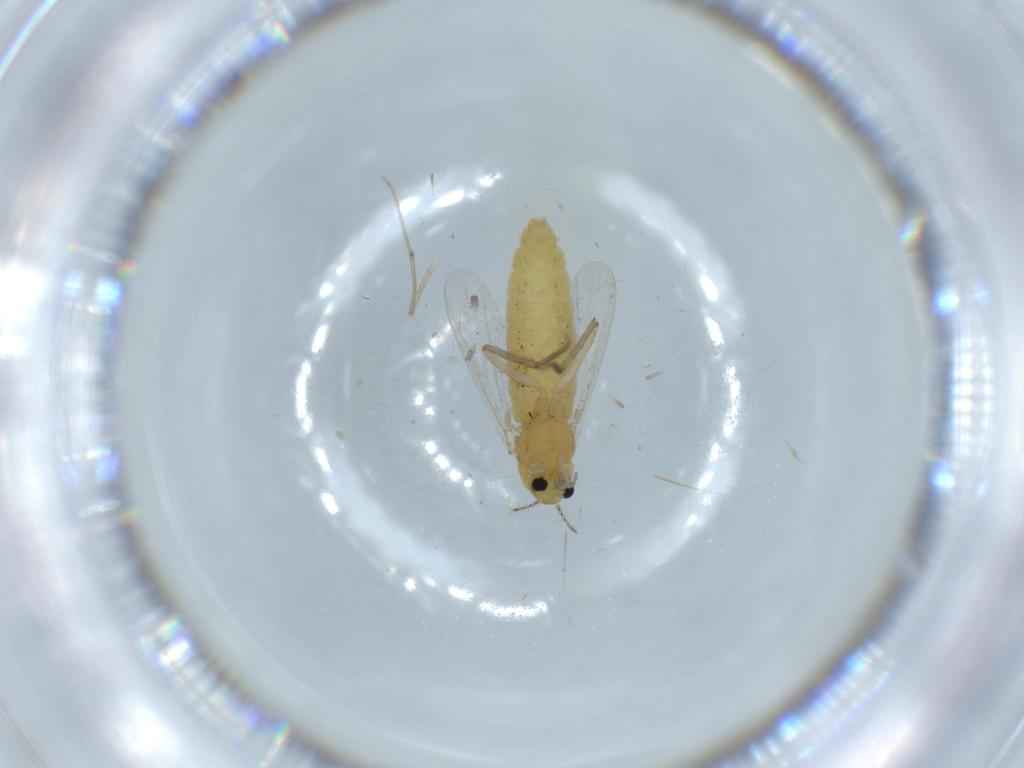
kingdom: Animalia
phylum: Arthropoda
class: Insecta
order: Diptera
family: Chironomidae
